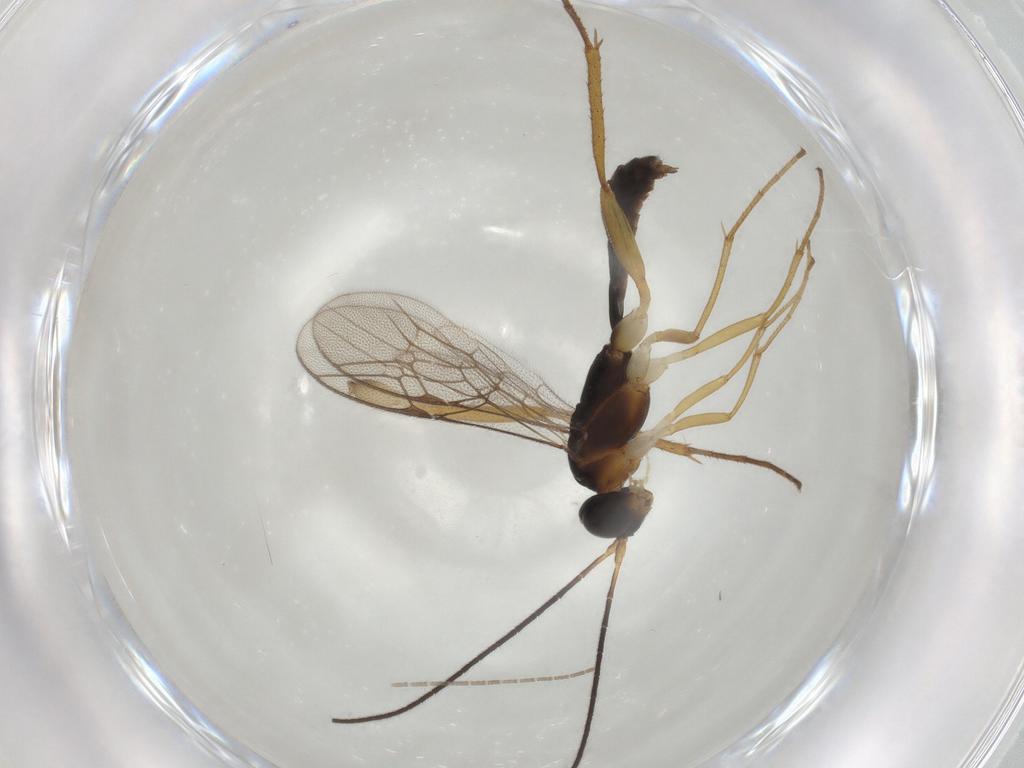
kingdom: Animalia
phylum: Arthropoda
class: Insecta
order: Hymenoptera
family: Ichneumonidae
